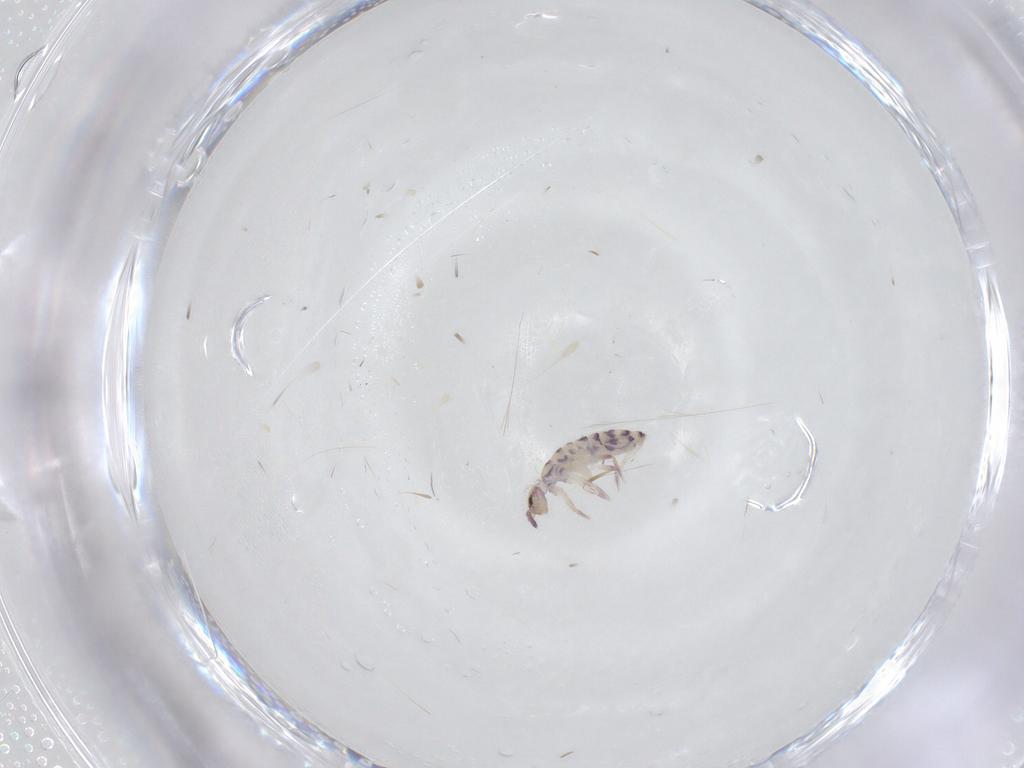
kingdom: Animalia
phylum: Arthropoda
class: Collembola
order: Entomobryomorpha
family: Entomobryidae
